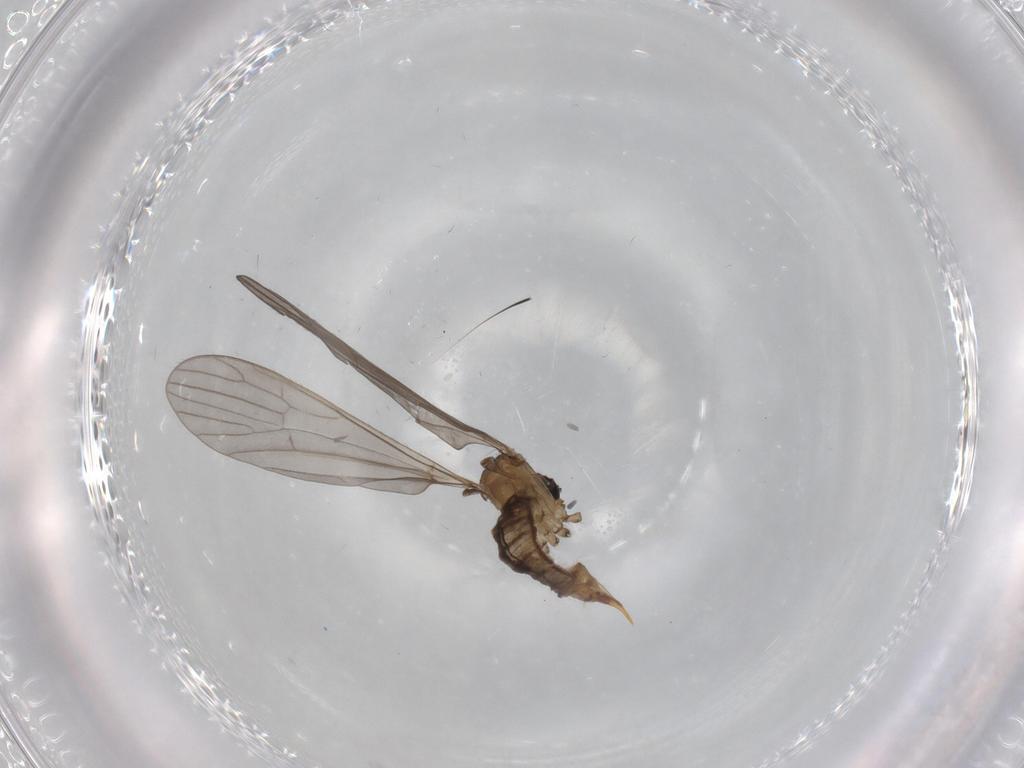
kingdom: Animalia
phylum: Arthropoda
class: Insecta
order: Diptera
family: Limoniidae
